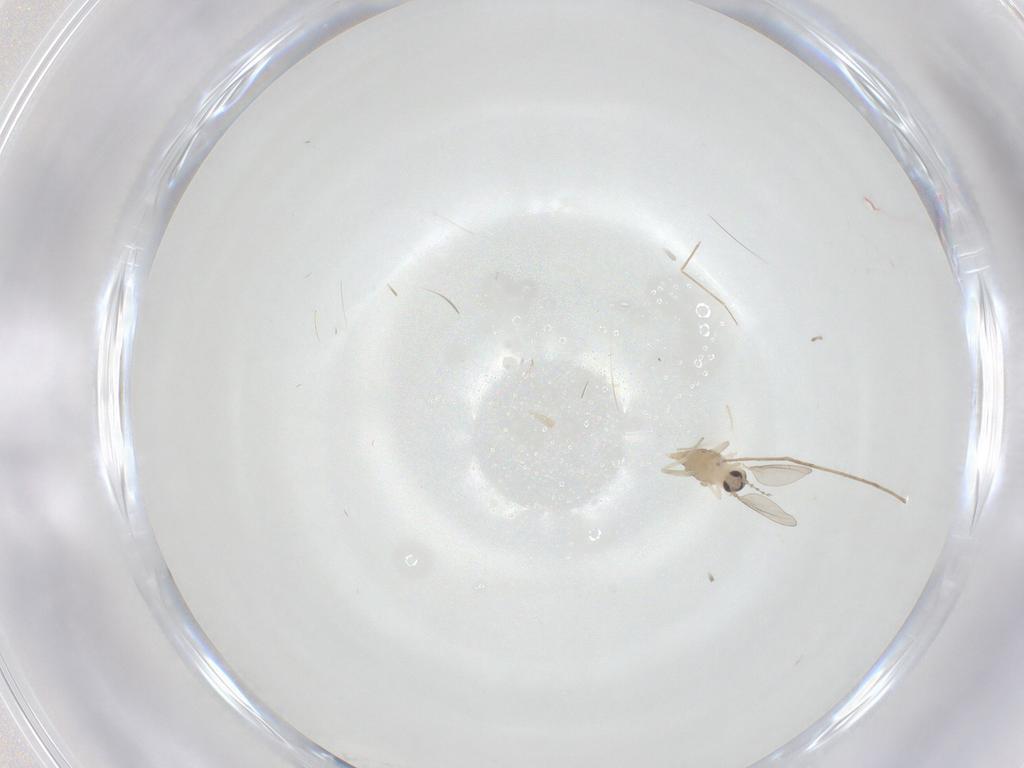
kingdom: Animalia
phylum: Arthropoda
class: Insecta
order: Diptera
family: Cecidomyiidae
